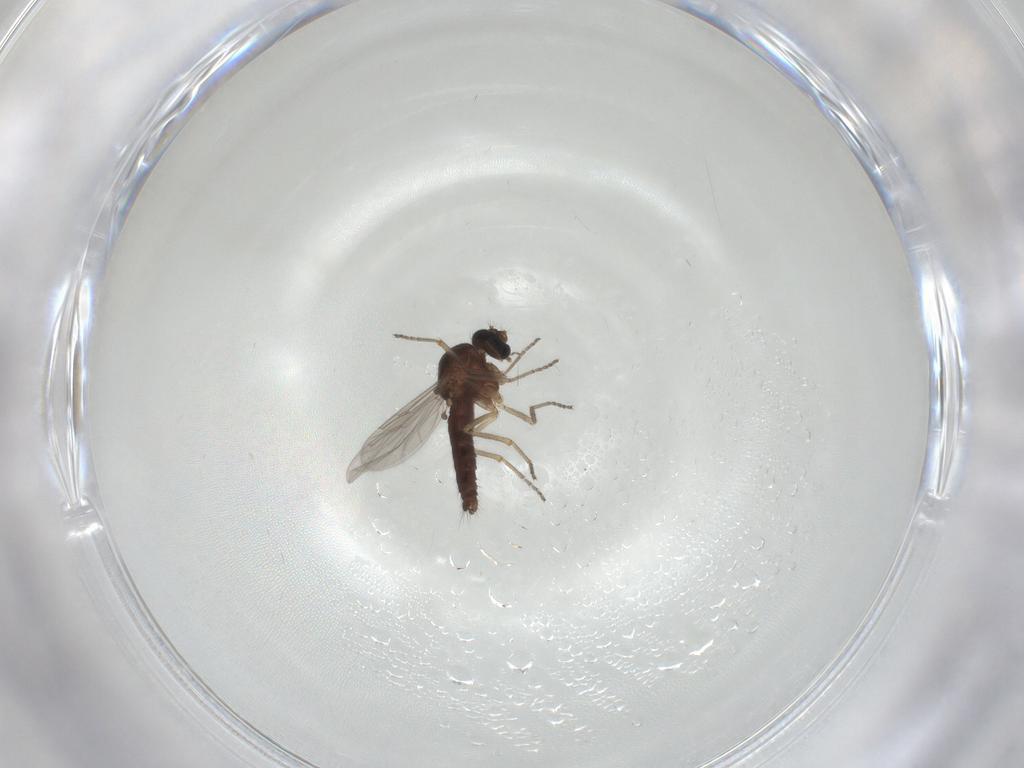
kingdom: Animalia
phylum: Arthropoda
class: Insecta
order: Diptera
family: Ceratopogonidae
